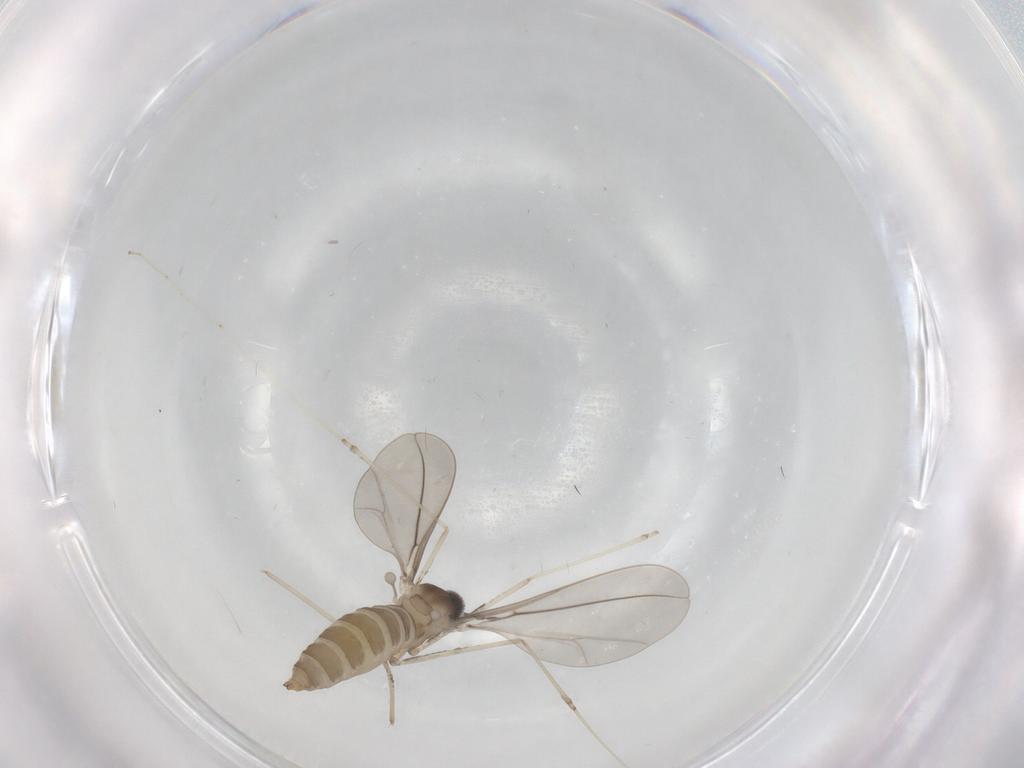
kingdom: Animalia
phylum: Arthropoda
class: Insecta
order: Diptera
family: Cecidomyiidae
